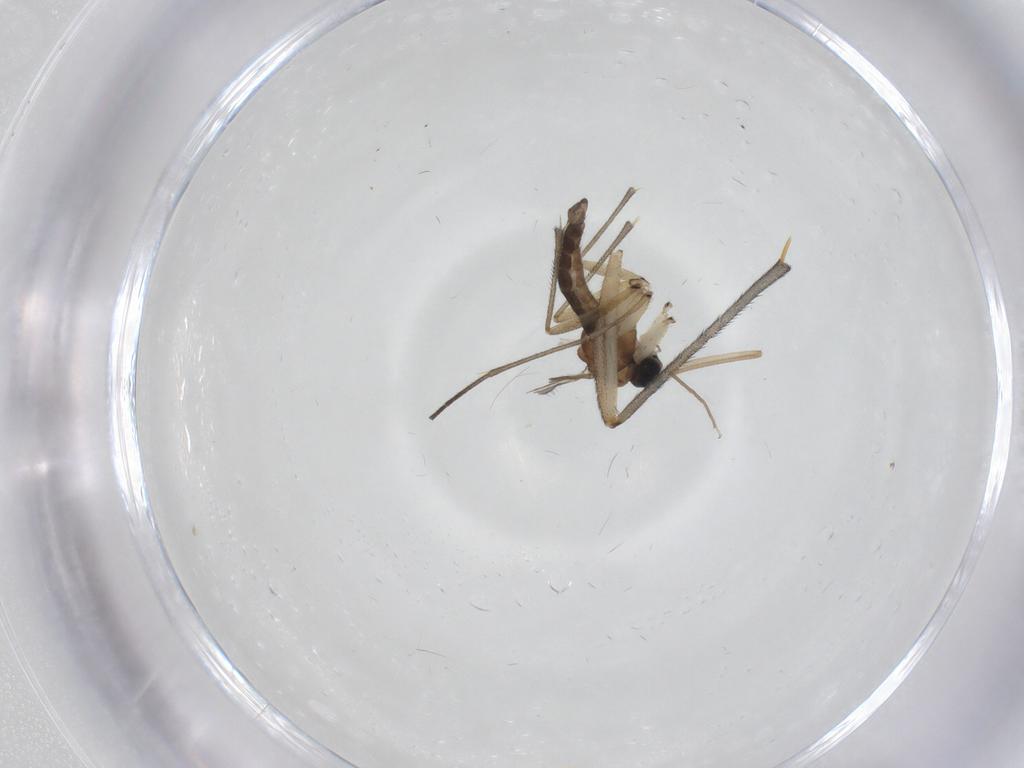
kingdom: Animalia
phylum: Arthropoda
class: Insecta
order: Diptera
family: Sciaridae
